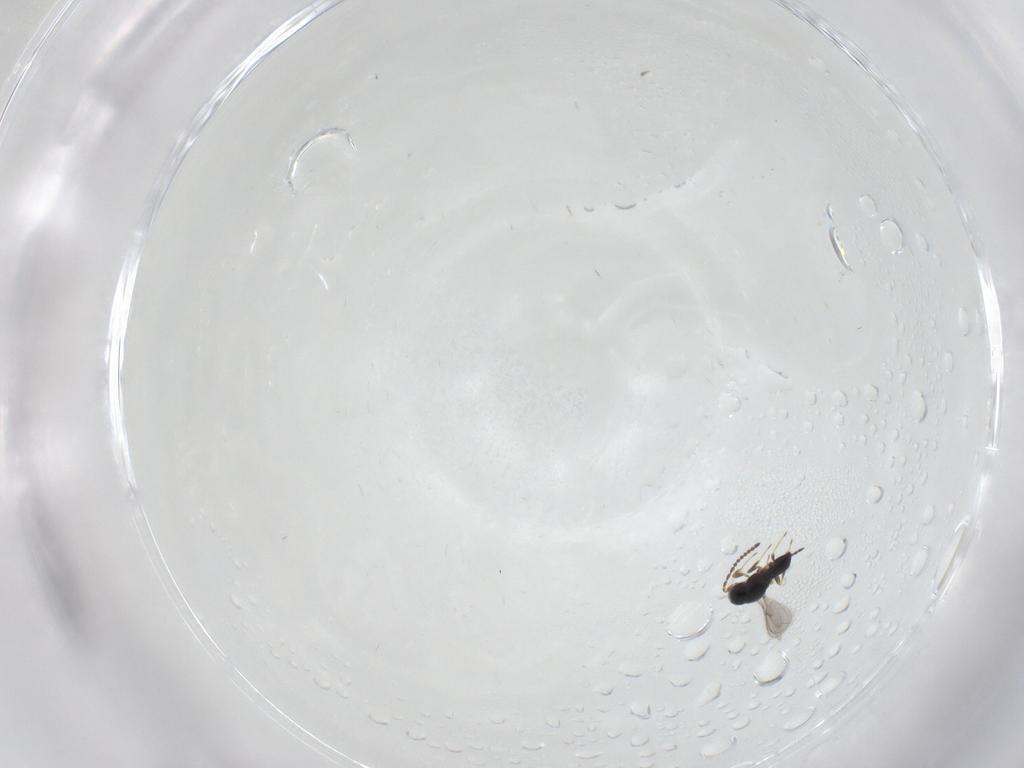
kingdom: Animalia
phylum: Arthropoda
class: Insecta
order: Hymenoptera
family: Scelionidae
